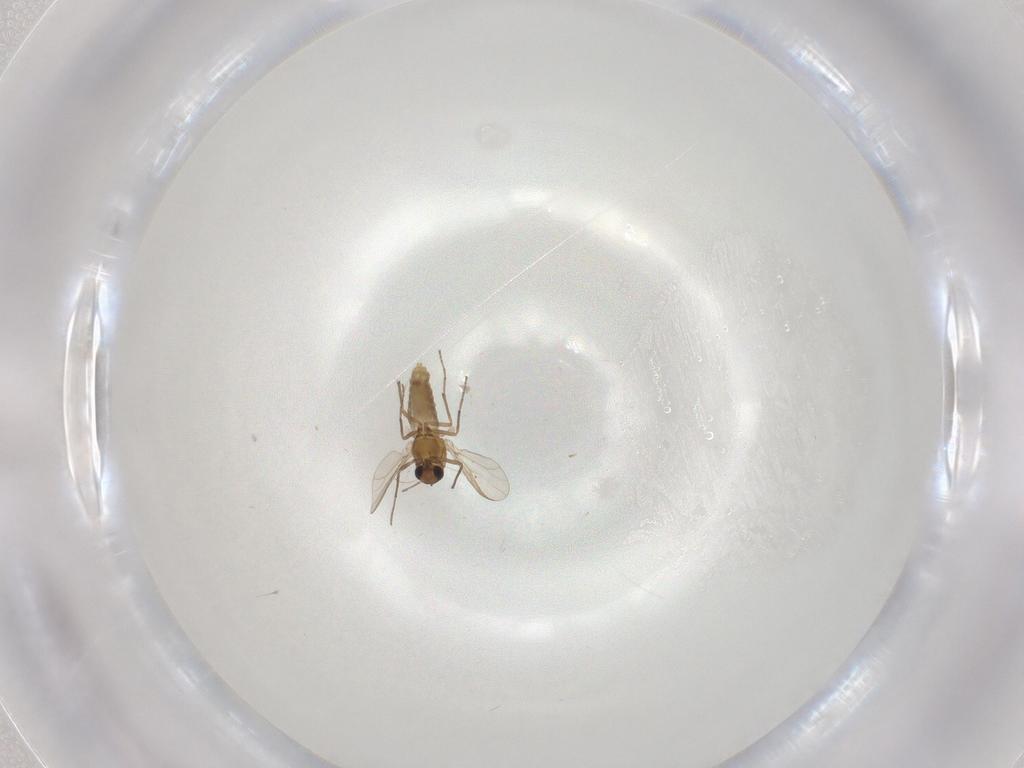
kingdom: Animalia
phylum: Arthropoda
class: Insecta
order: Diptera
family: Chironomidae
